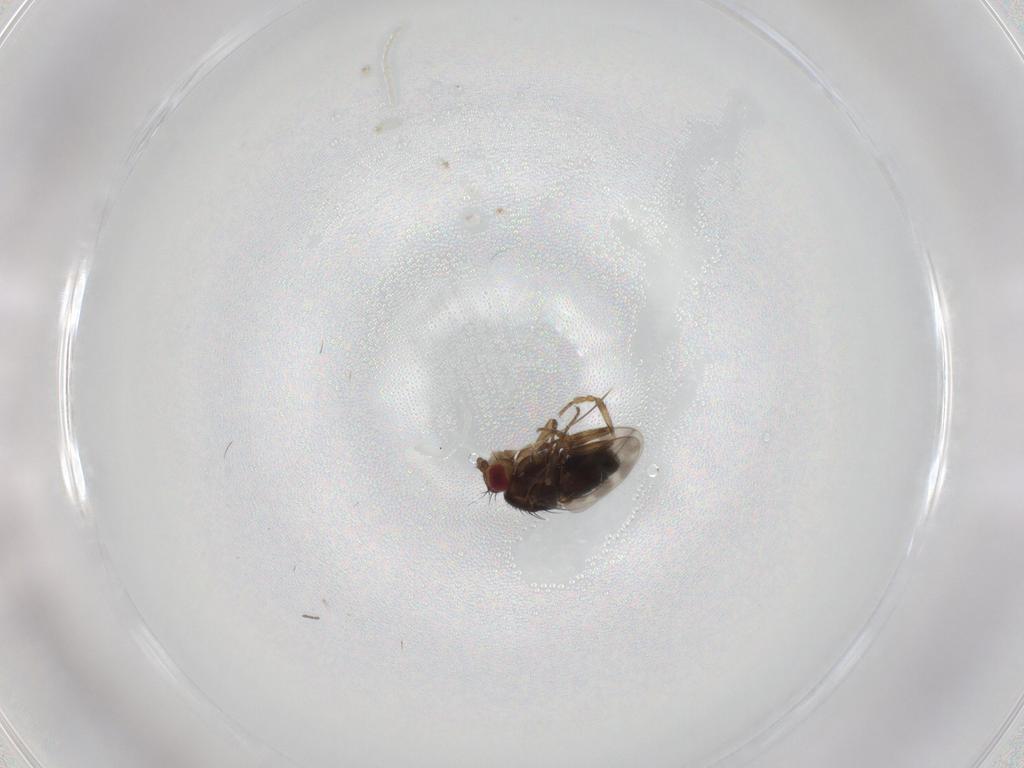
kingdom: Animalia
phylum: Arthropoda
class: Insecta
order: Diptera
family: Sphaeroceridae
